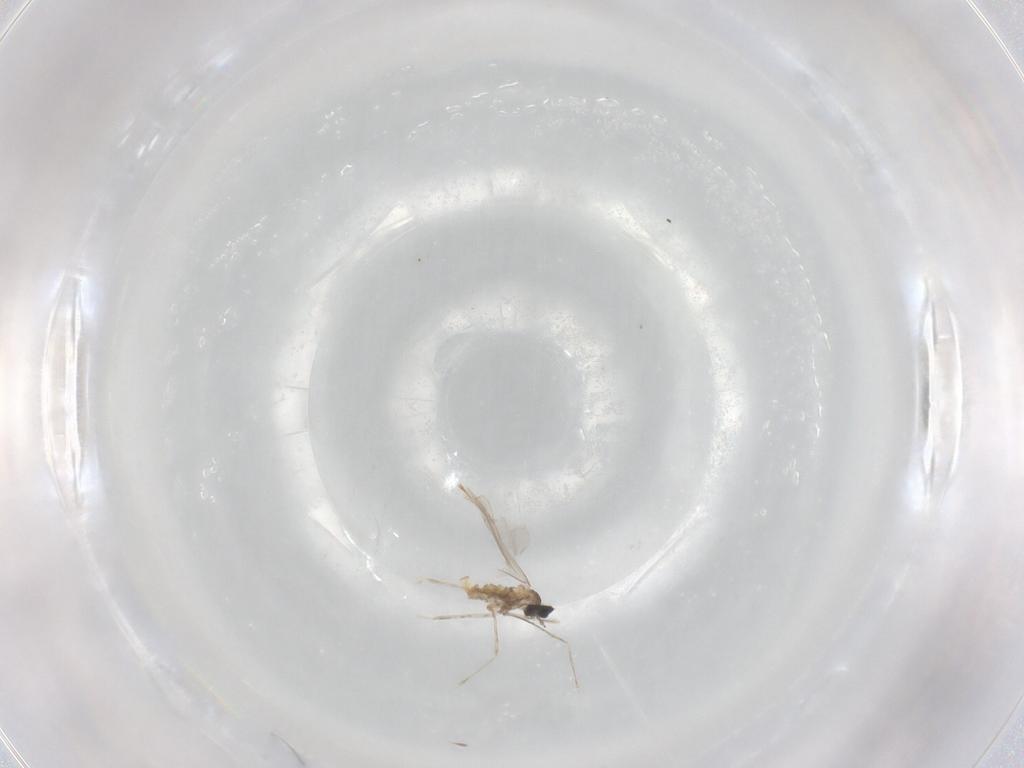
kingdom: Animalia
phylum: Arthropoda
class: Insecta
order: Diptera
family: Cecidomyiidae
